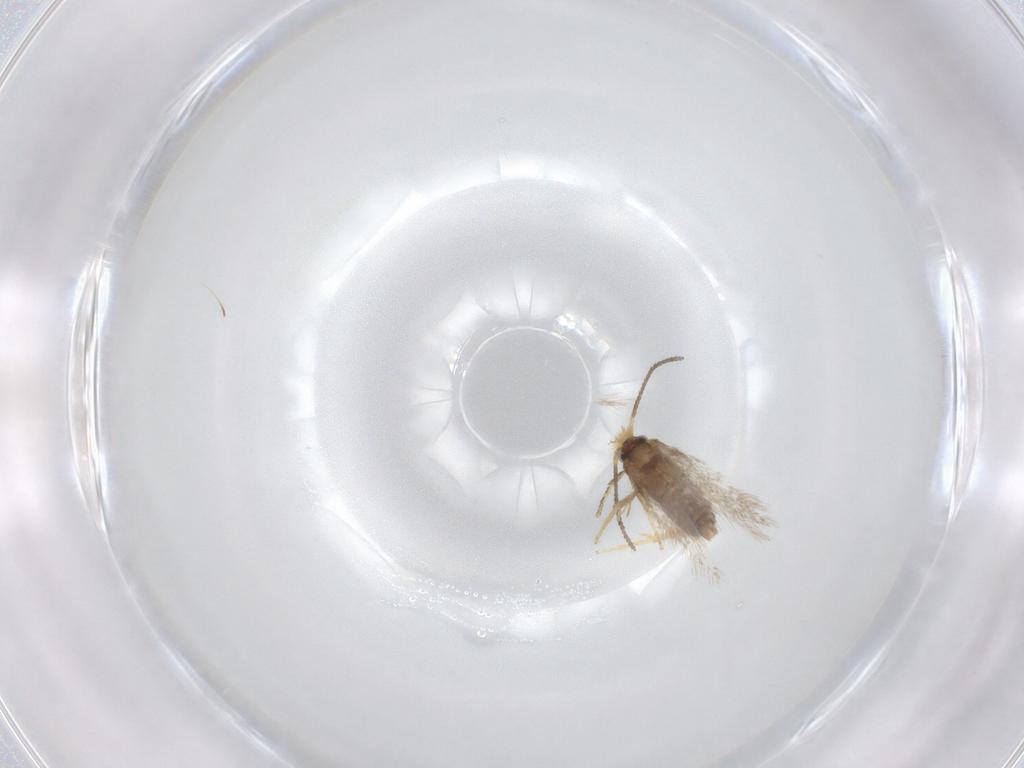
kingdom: Animalia
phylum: Arthropoda
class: Insecta
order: Lepidoptera
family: Nepticulidae
